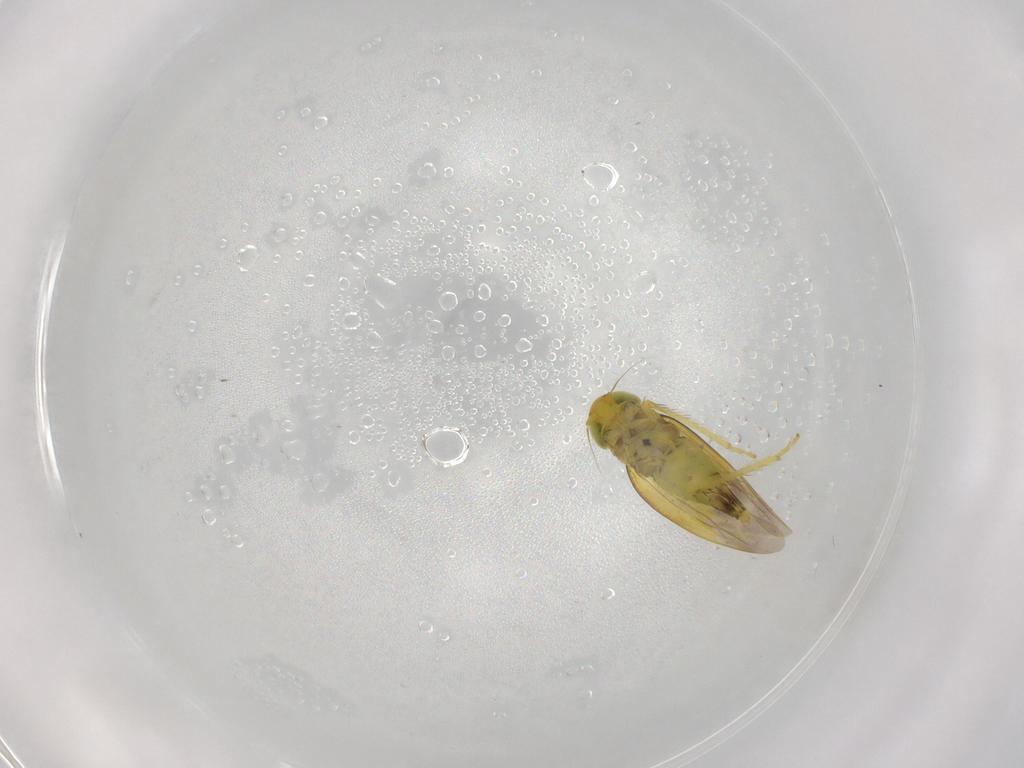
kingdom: Animalia
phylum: Arthropoda
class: Insecta
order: Hemiptera
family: Cicadellidae
